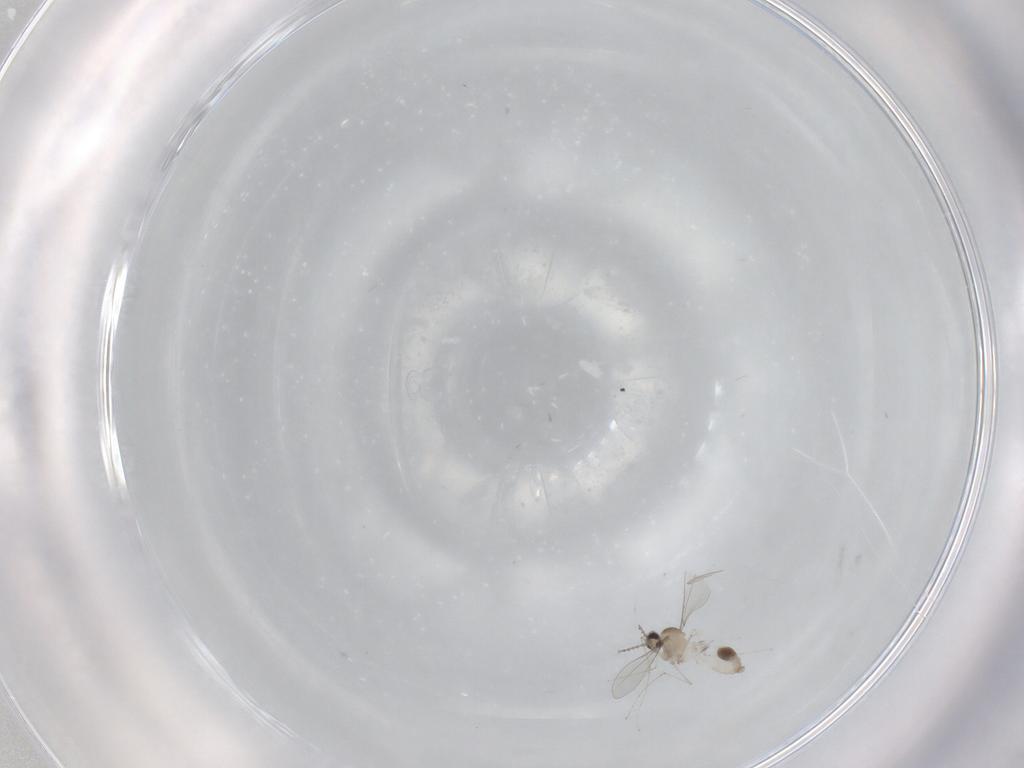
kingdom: Animalia
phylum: Arthropoda
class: Insecta
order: Diptera
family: Cecidomyiidae
